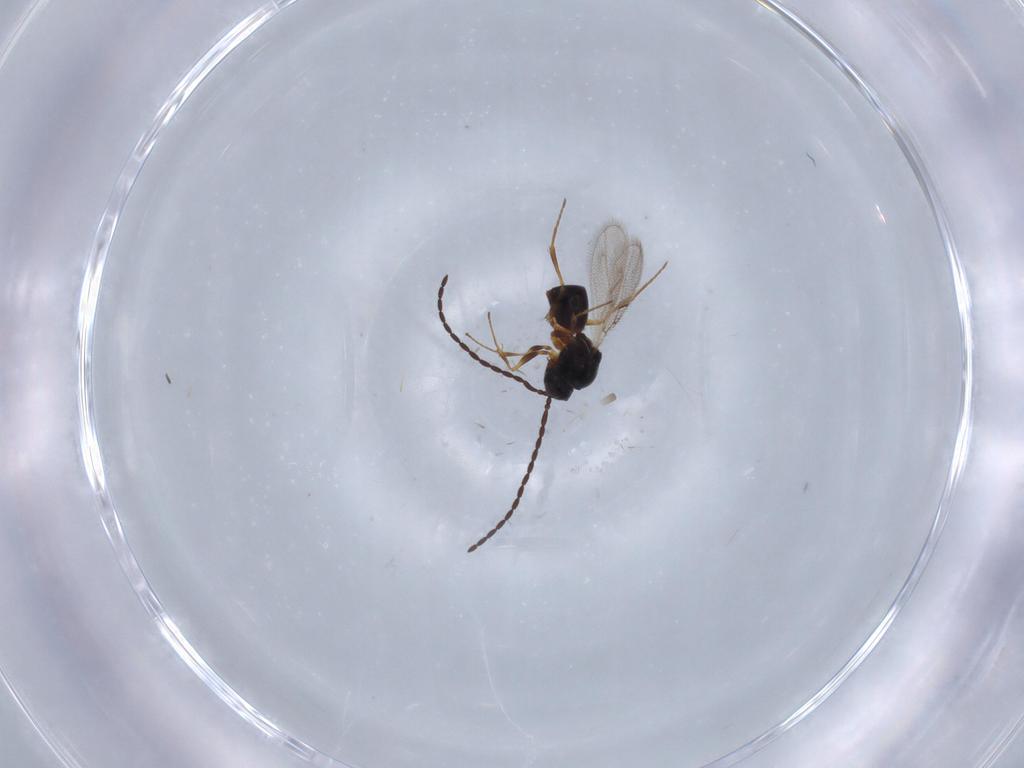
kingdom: Animalia
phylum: Arthropoda
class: Insecta
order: Hymenoptera
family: Figitidae
